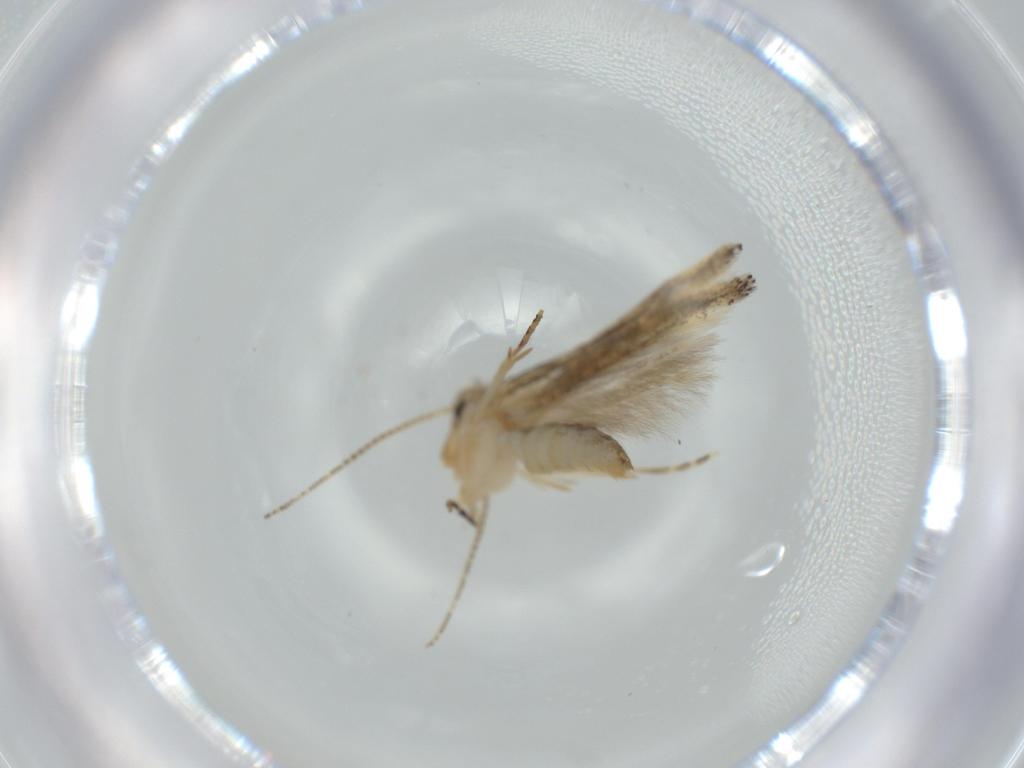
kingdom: Animalia
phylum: Arthropoda
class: Insecta
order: Lepidoptera
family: Bucculatricidae
